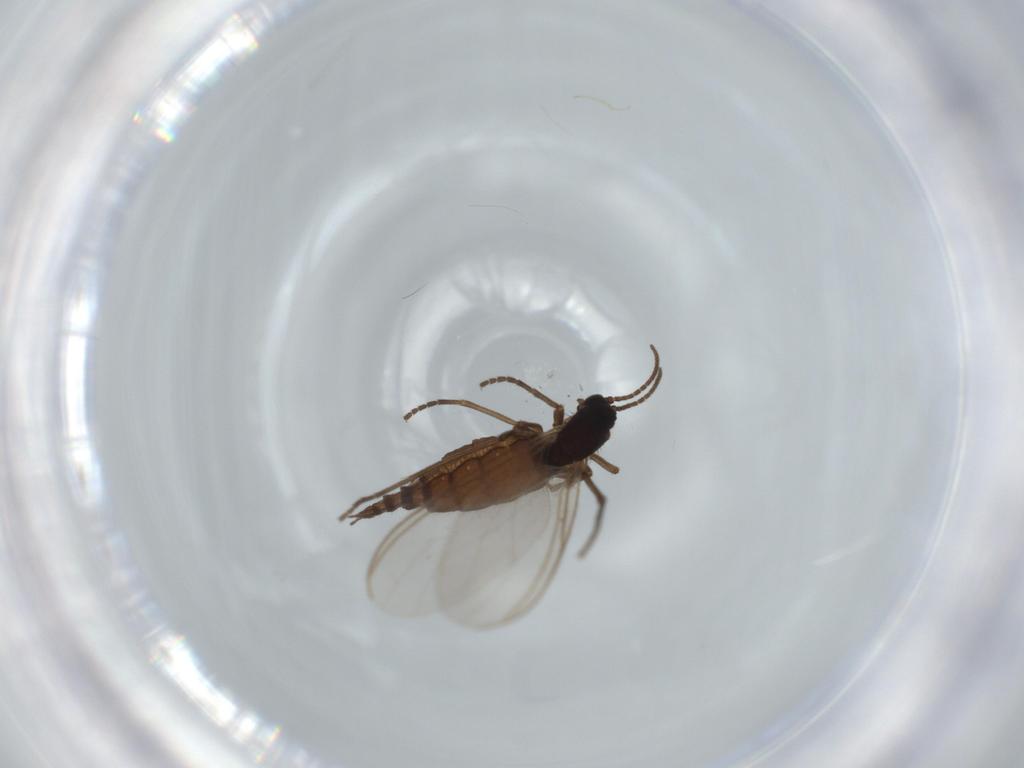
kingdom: Animalia
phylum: Arthropoda
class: Insecta
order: Diptera
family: Sciaridae
